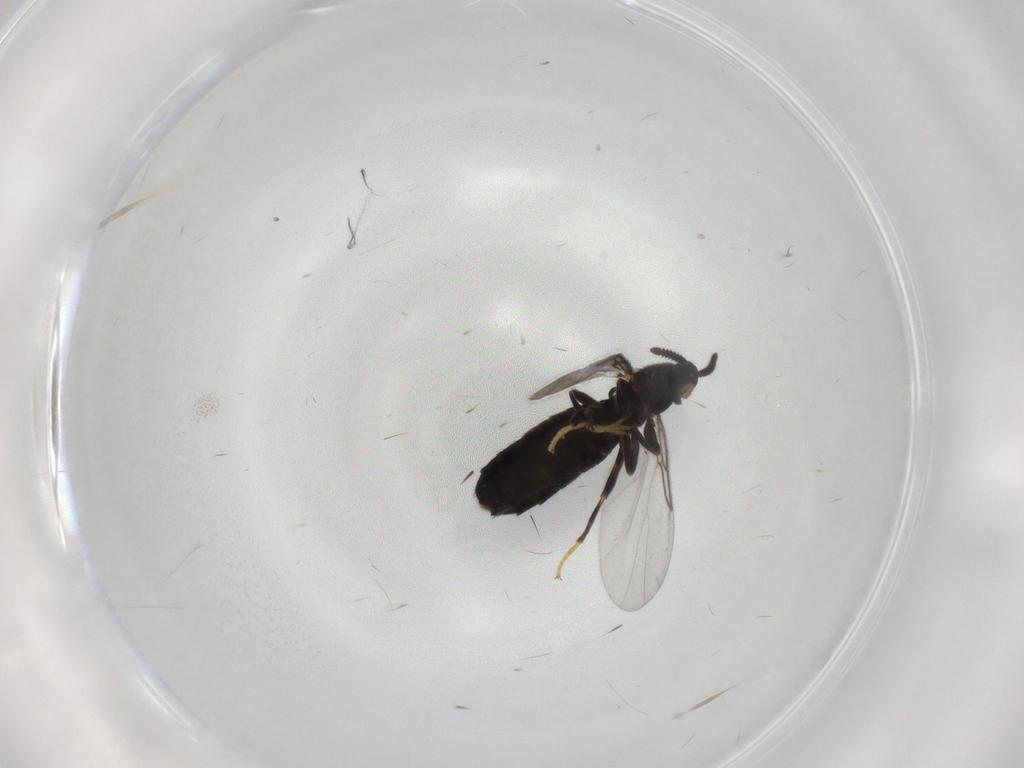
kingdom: Animalia
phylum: Arthropoda
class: Insecta
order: Diptera
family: Scatopsidae
